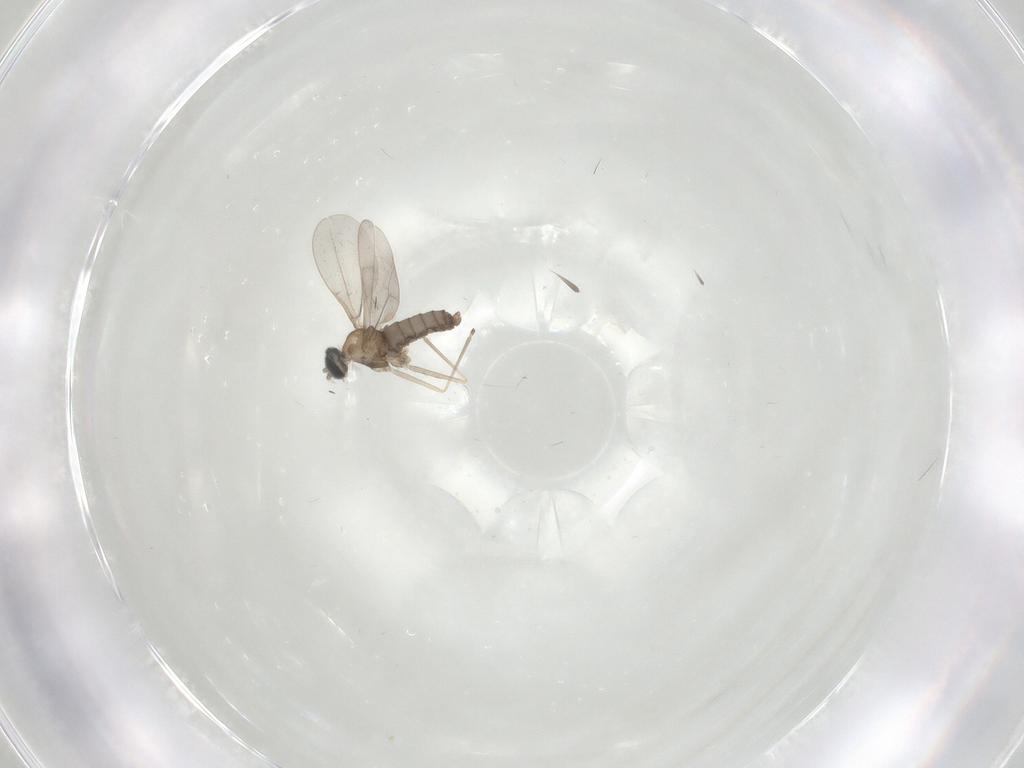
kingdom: Animalia
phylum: Arthropoda
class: Insecta
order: Diptera
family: Cecidomyiidae
